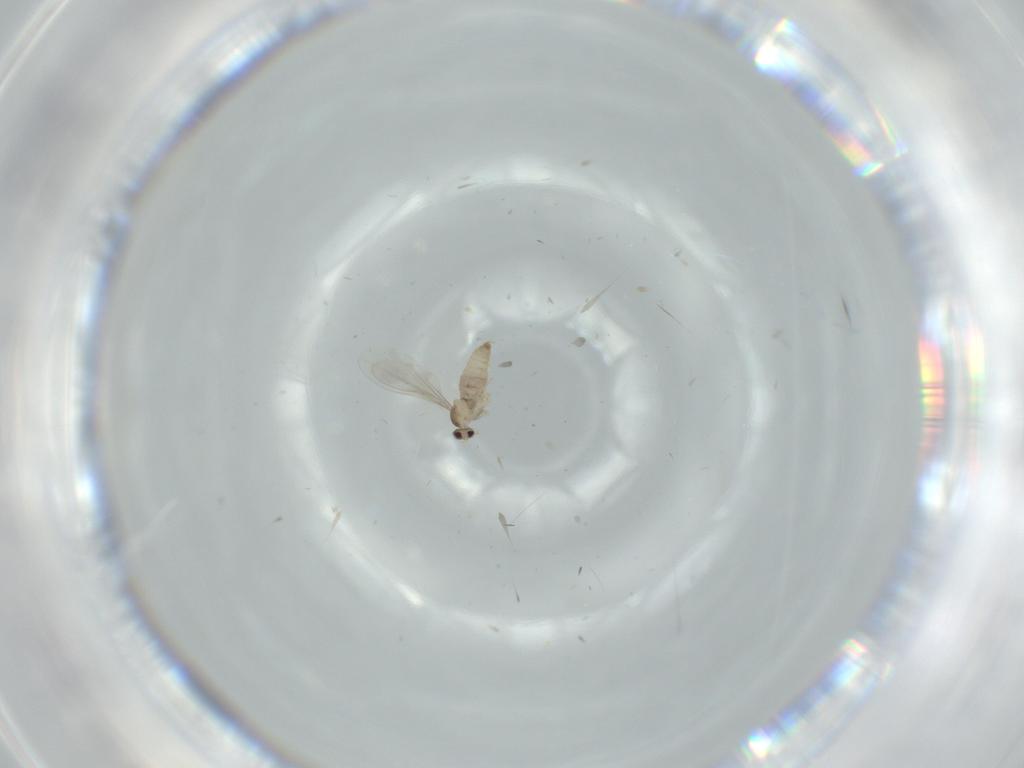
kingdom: Animalia
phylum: Arthropoda
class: Insecta
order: Diptera
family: Cecidomyiidae
